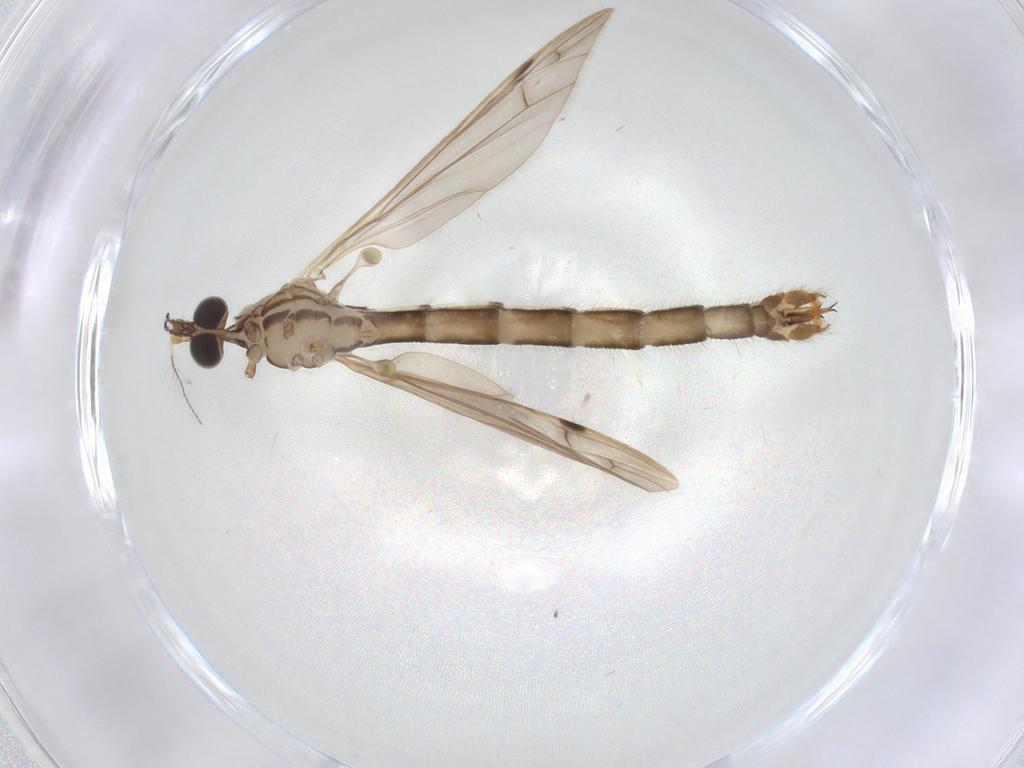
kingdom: Animalia
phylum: Arthropoda
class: Insecta
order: Diptera
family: Limoniidae
